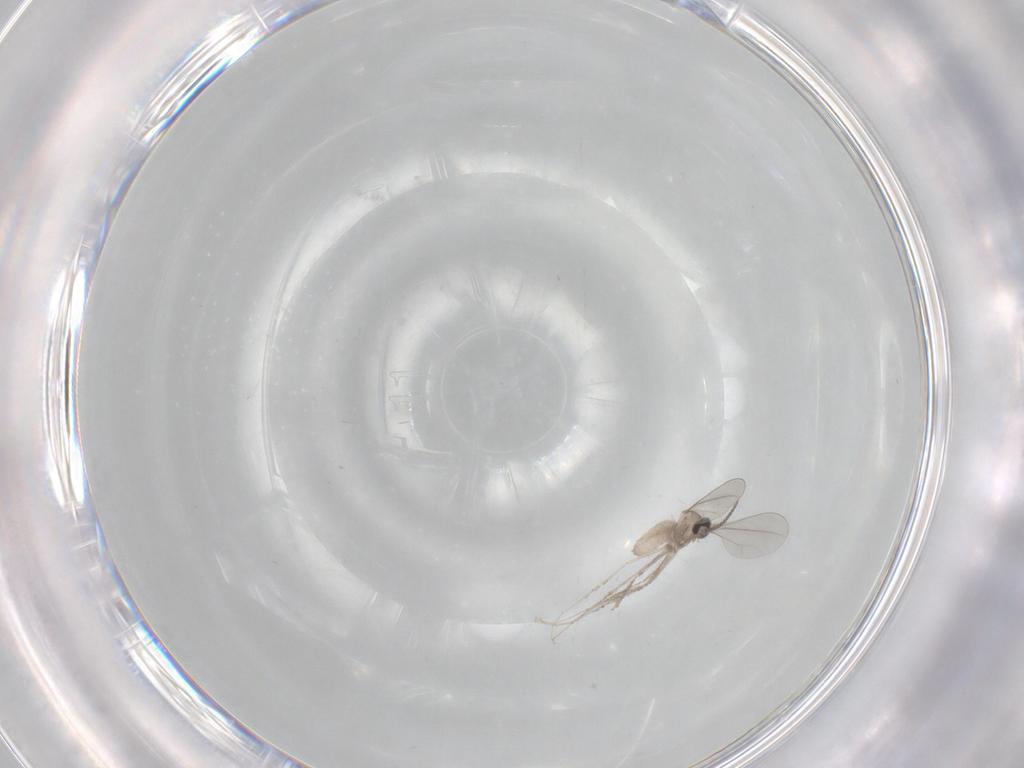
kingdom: Animalia
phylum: Arthropoda
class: Insecta
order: Diptera
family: Cecidomyiidae
